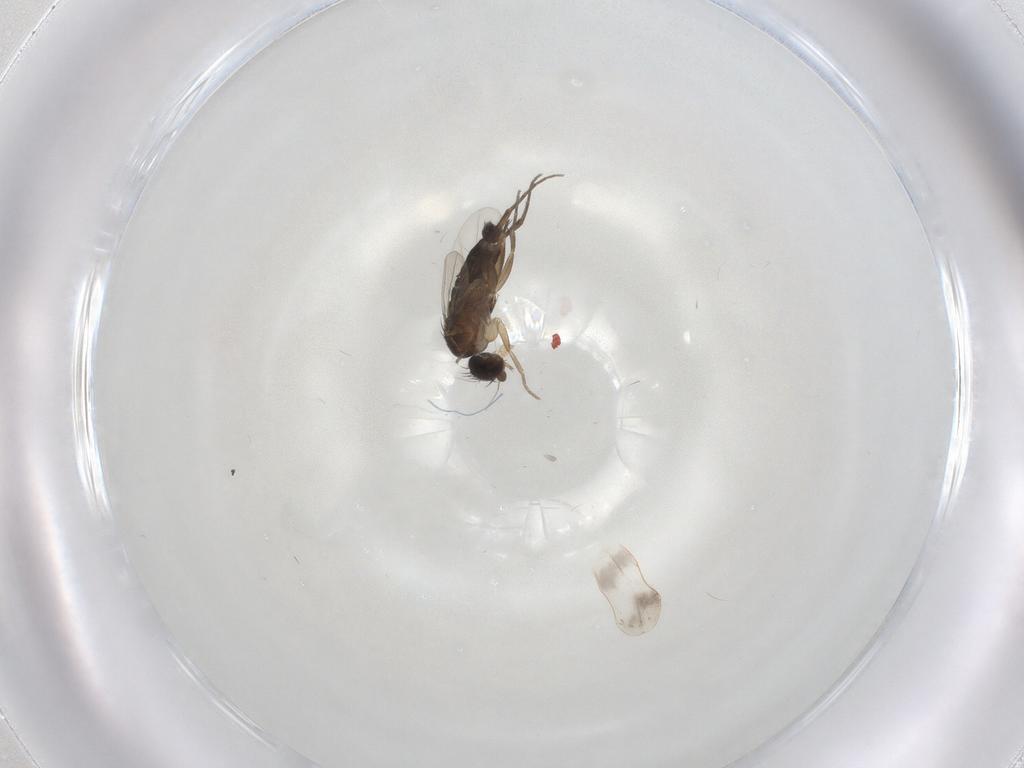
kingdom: Animalia
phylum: Arthropoda
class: Insecta
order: Diptera
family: Phoridae
